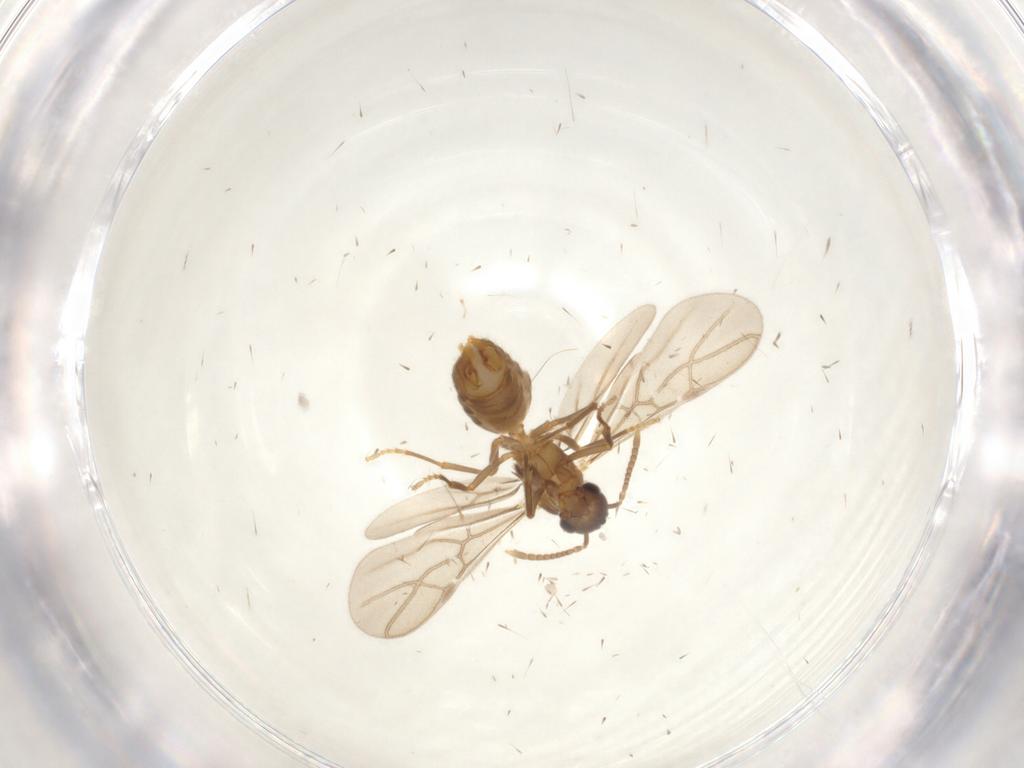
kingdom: Animalia
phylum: Arthropoda
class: Insecta
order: Hymenoptera
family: Formicidae
